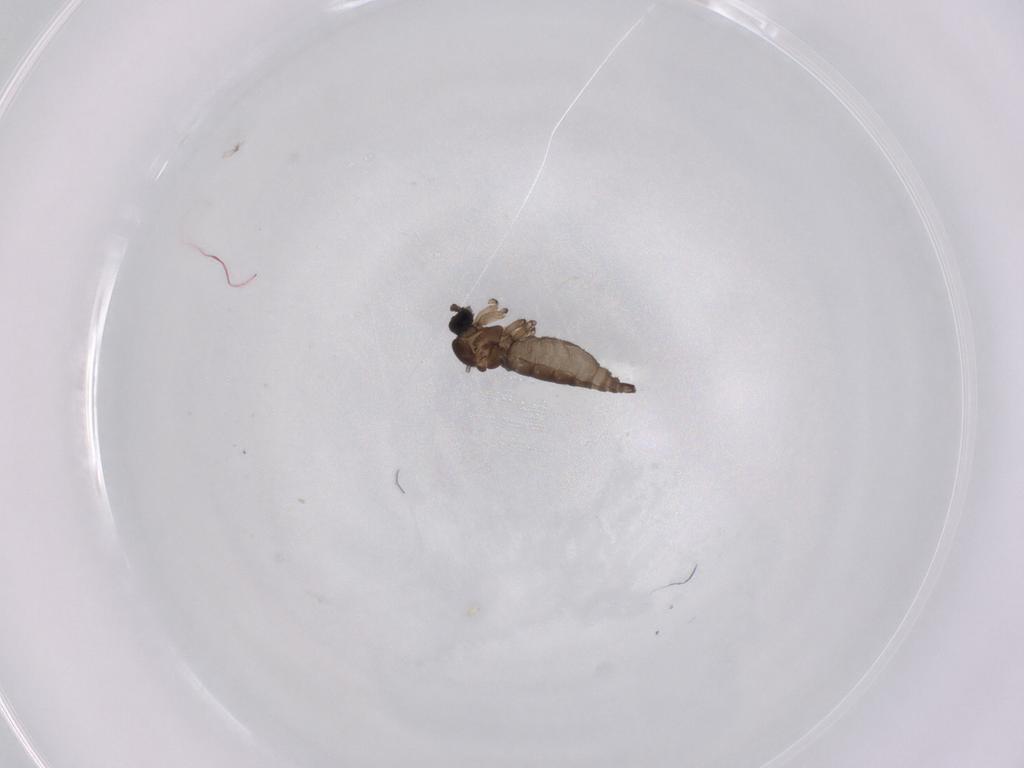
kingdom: Animalia
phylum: Arthropoda
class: Insecta
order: Diptera
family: Sciaridae
